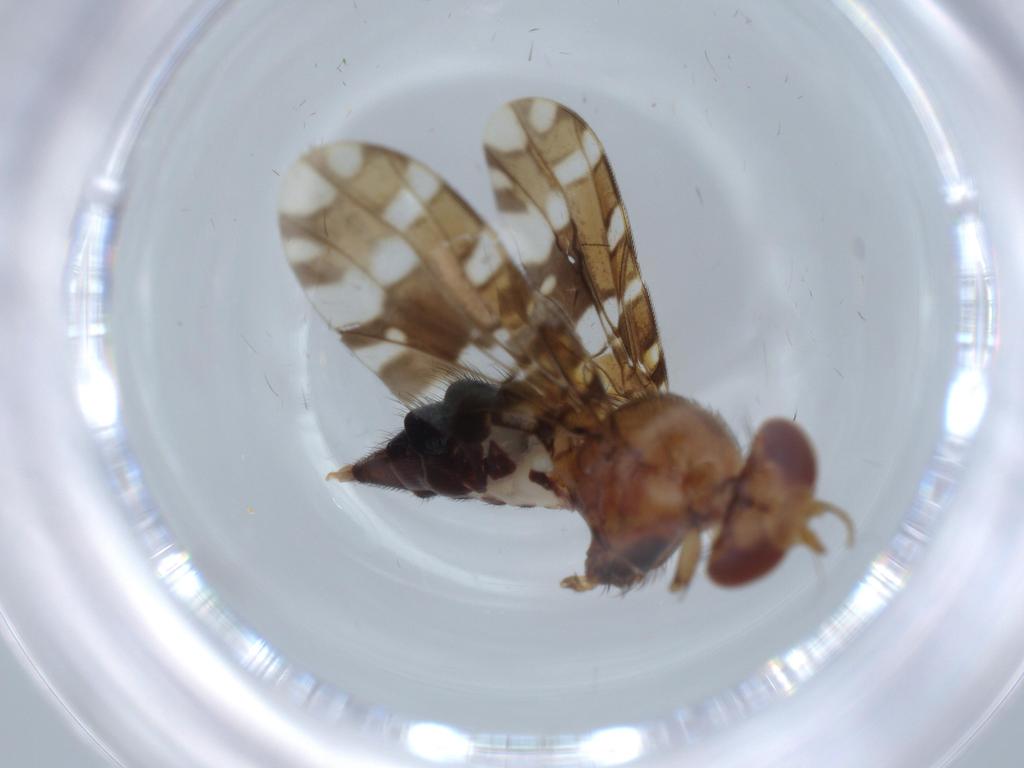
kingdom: Animalia
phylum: Arthropoda
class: Insecta
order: Diptera
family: Ulidiidae
